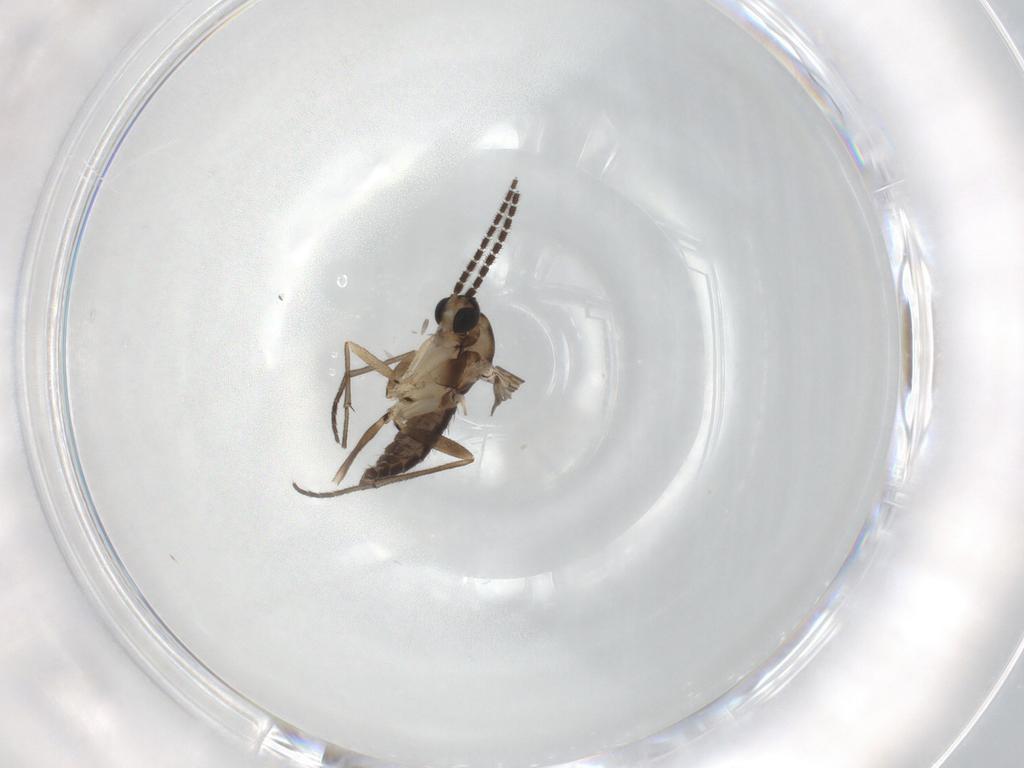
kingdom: Animalia
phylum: Arthropoda
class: Insecta
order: Diptera
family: Sciaridae
